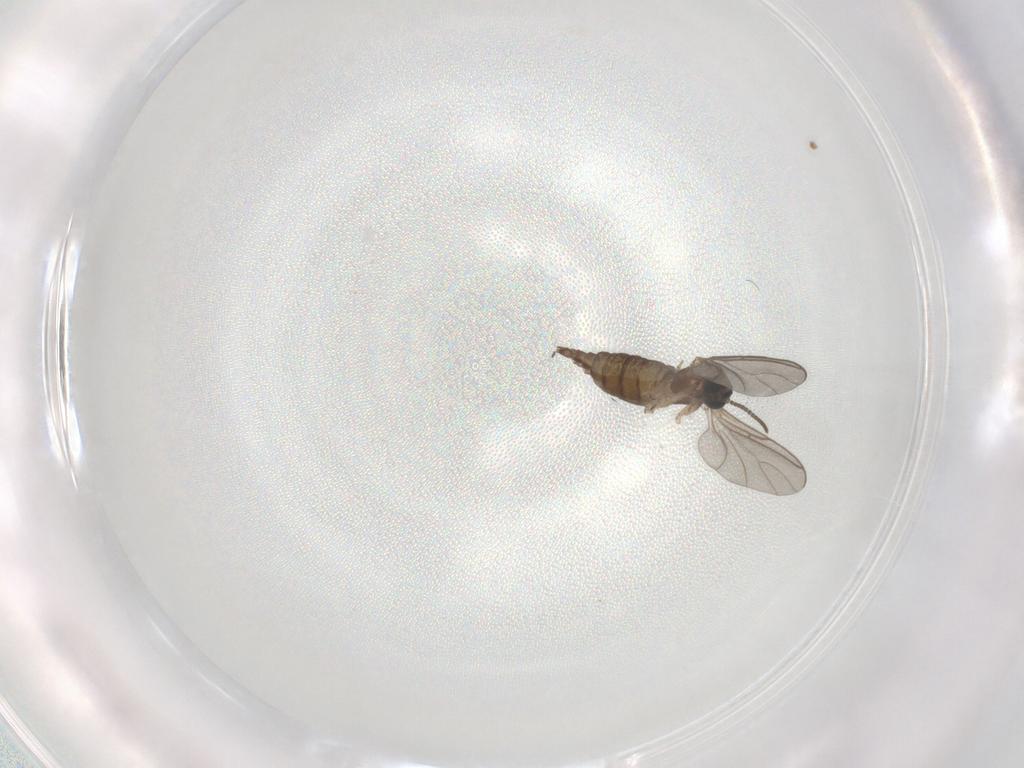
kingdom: Animalia
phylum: Arthropoda
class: Insecta
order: Diptera
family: Sciaridae
